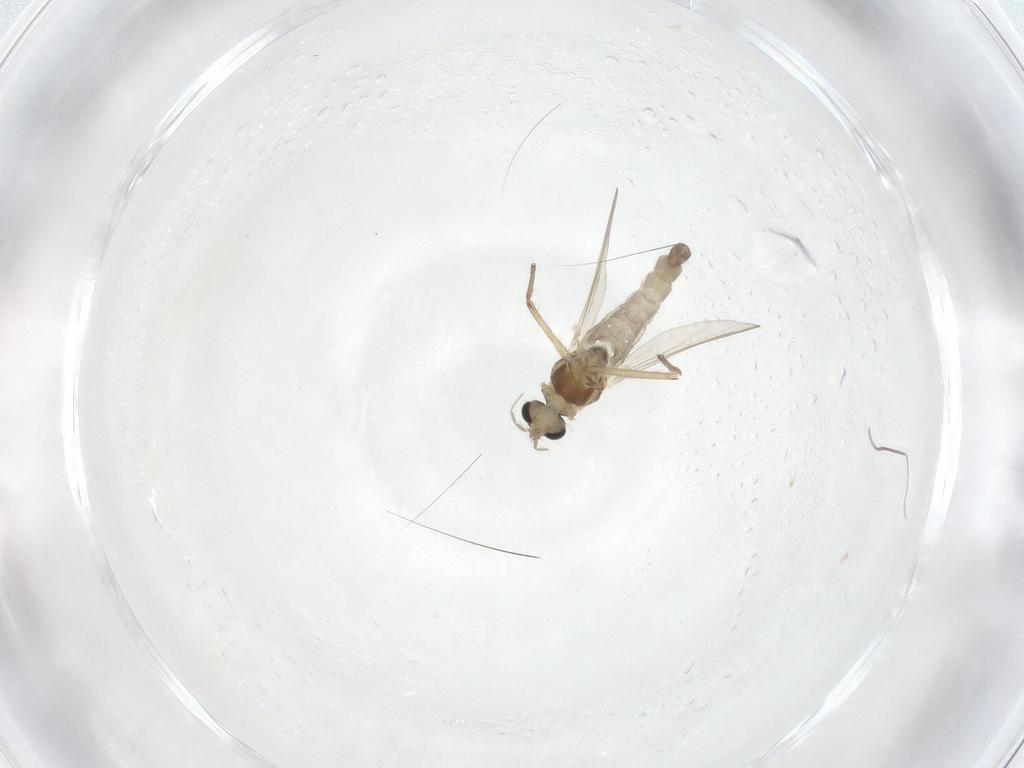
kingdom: Animalia
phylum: Arthropoda
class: Insecta
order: Diptera
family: Chironomidae
